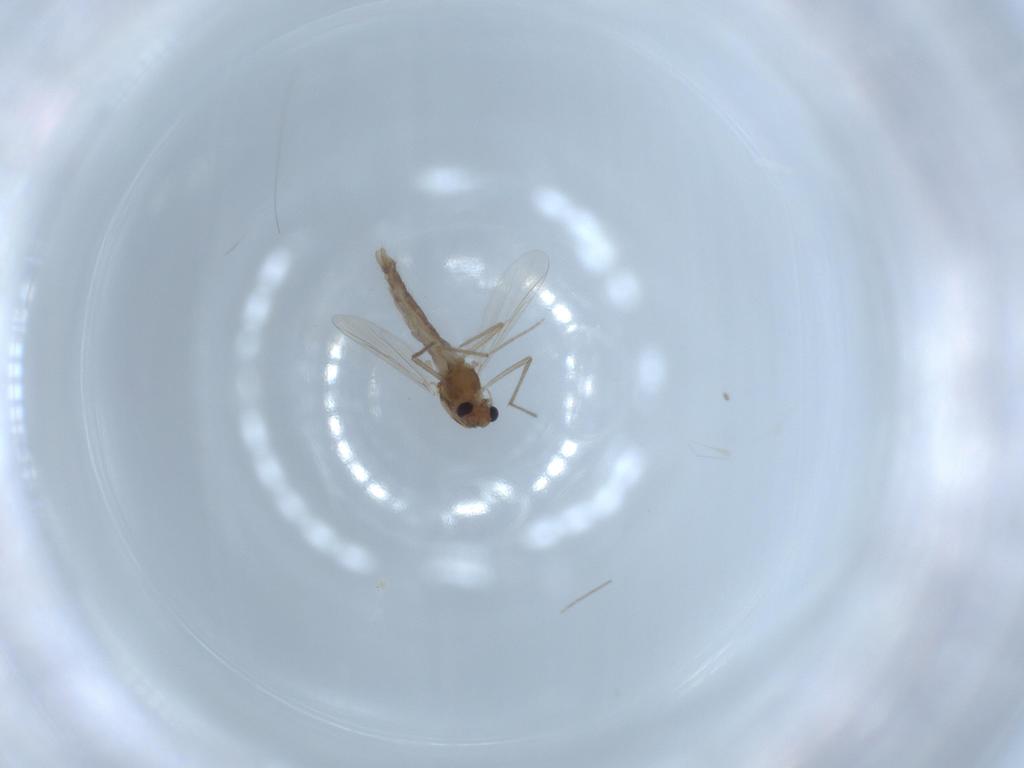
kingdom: Animalia
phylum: Arthropoda
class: Insecta
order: Diptera
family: Chironomidae
